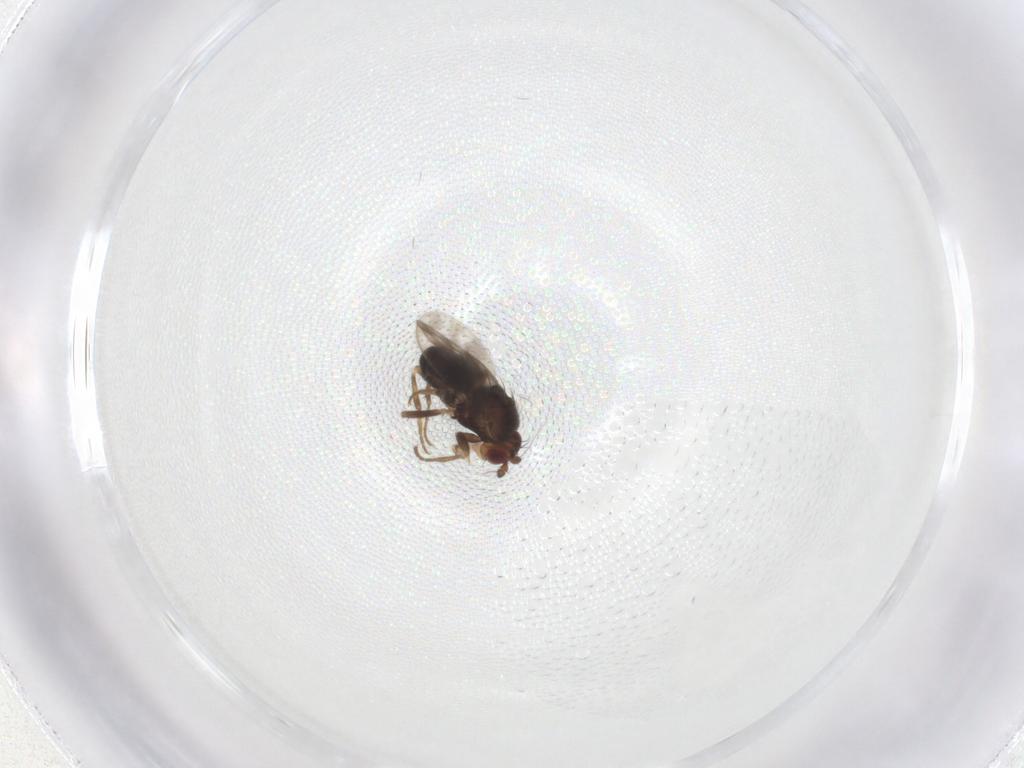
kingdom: Animalia
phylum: Arthropoda
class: Insecta
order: Diptera
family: Sphaeroceridae
